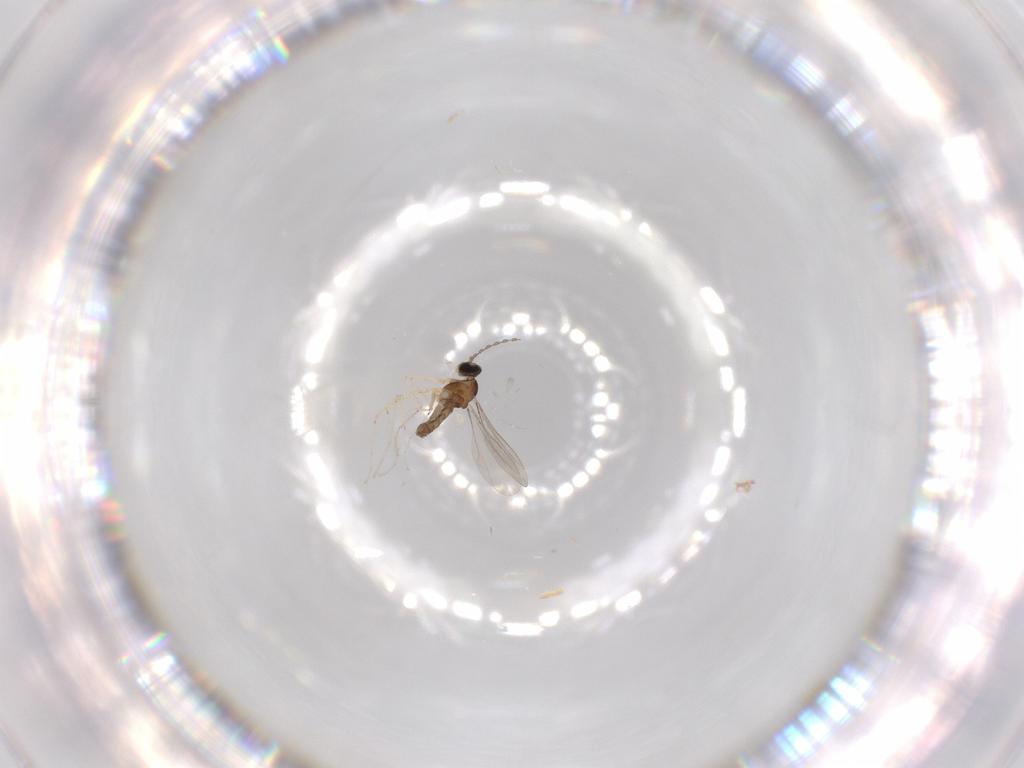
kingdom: Animalia
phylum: Arthropoda
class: Insecta
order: Diptera
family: Cecidomyiidae
